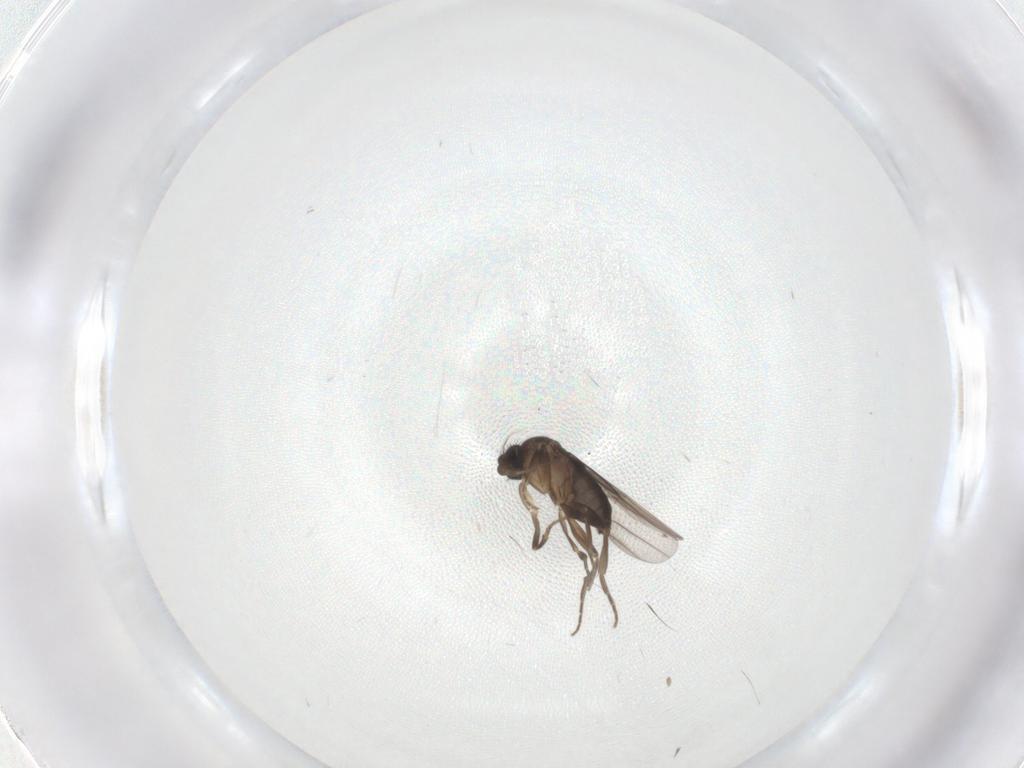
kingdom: Animalia
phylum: Arthropoda
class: Insecta
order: Diptera
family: Chironomidae
